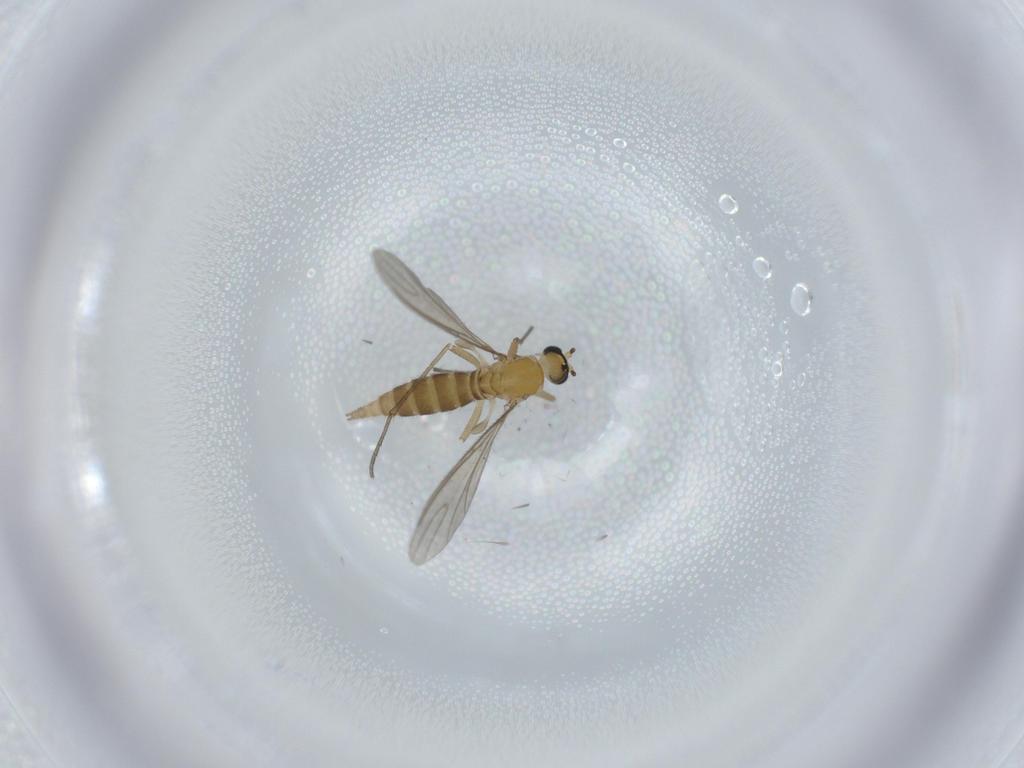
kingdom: Animalia
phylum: Arthropoda
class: Insecta
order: Diptera
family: Sciaridae
